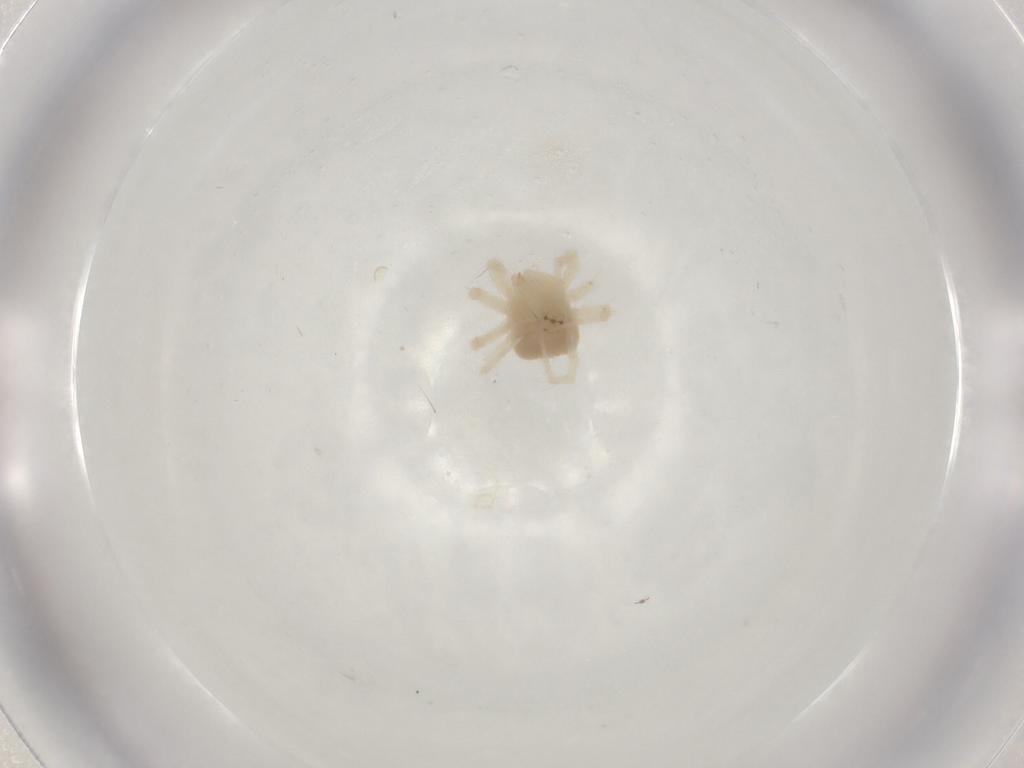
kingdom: Animalia
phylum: Arthropoda
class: Arachnida
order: Trombidiformes
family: Anystidae
